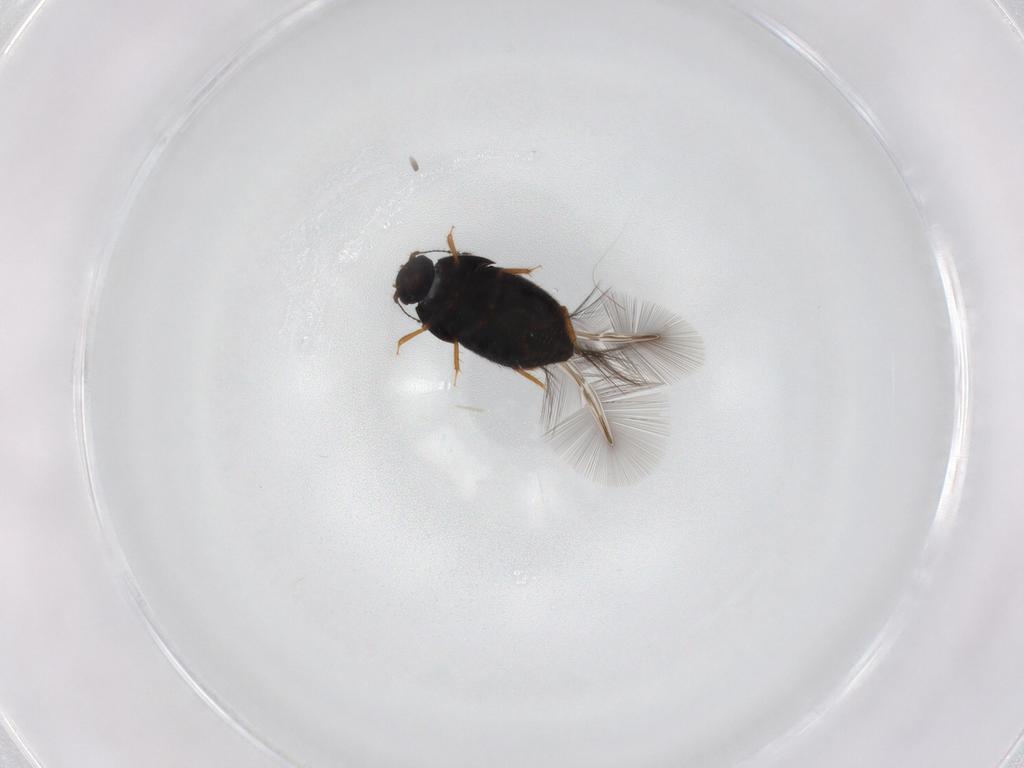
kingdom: Animalia
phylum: Arthropoda
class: Insecta
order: Coleoptera
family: Ptiliidae
